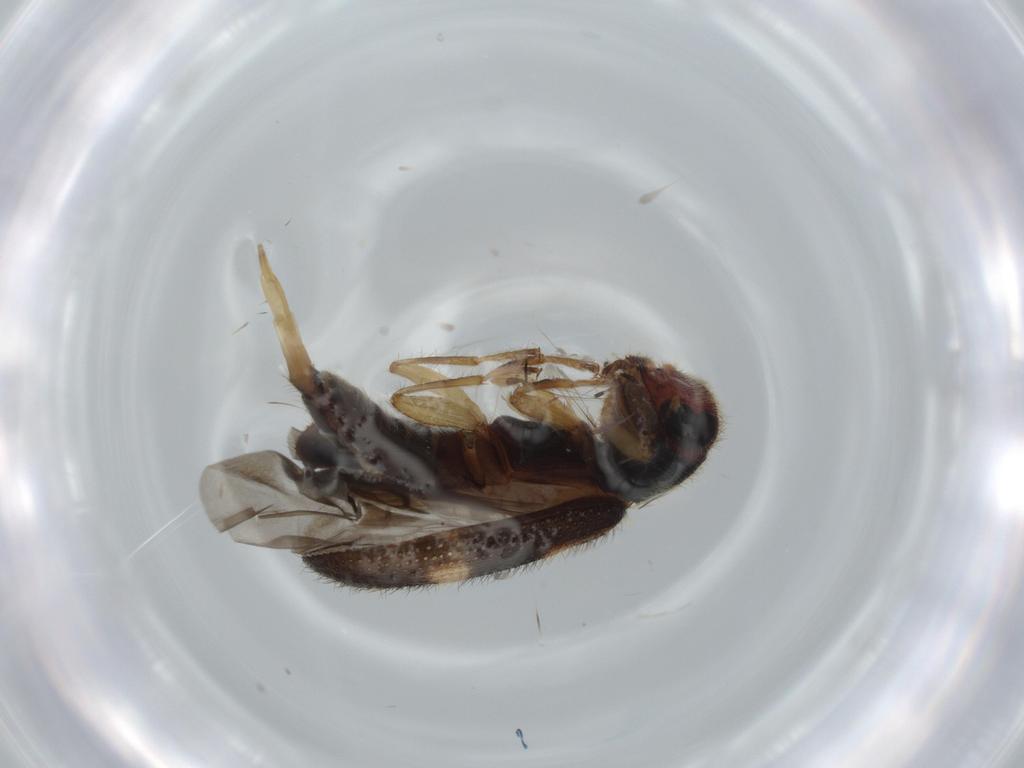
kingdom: Animalia
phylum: Arthropoda
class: Insecta
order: Coleoptera
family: Cleridae
